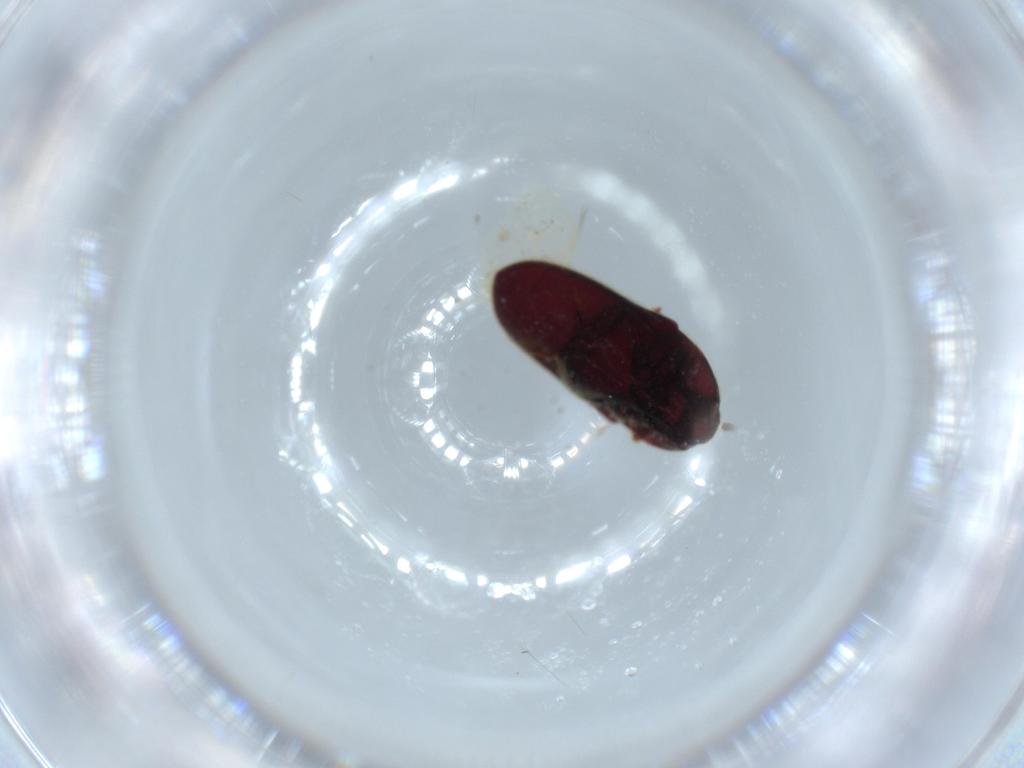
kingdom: Animalia
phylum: Arthropoda
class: Insecta
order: Coleoptera
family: Throscidae
